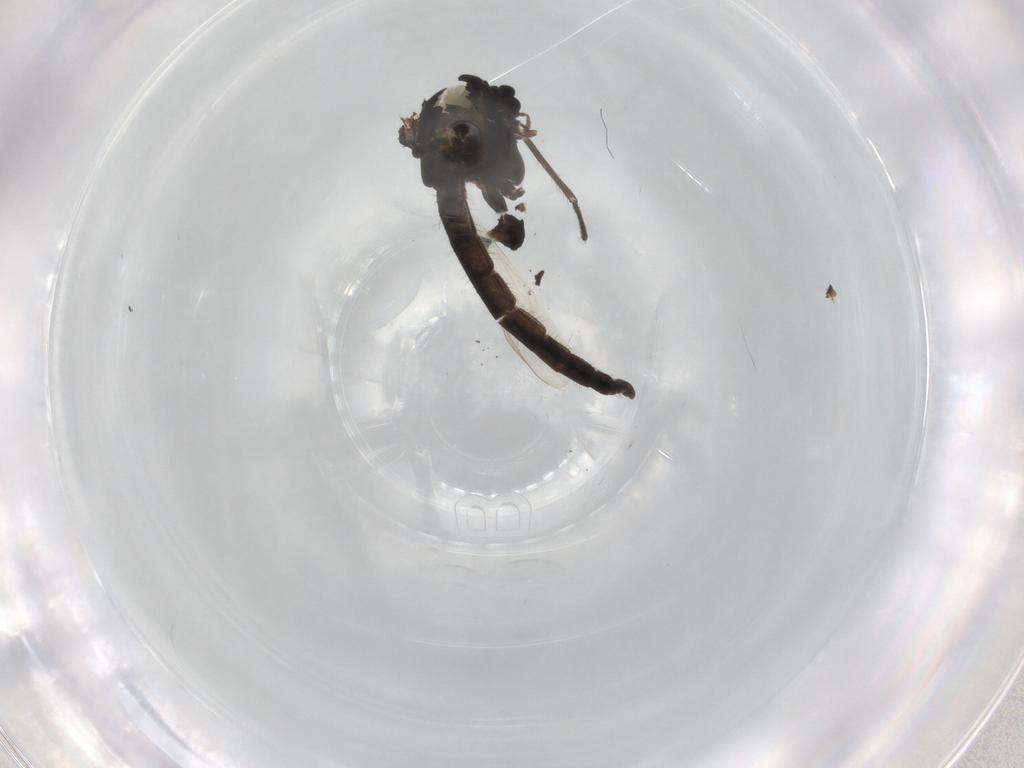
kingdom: Animalia
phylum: Arthropoda
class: Insecta
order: Diptera
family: Chironomidae
